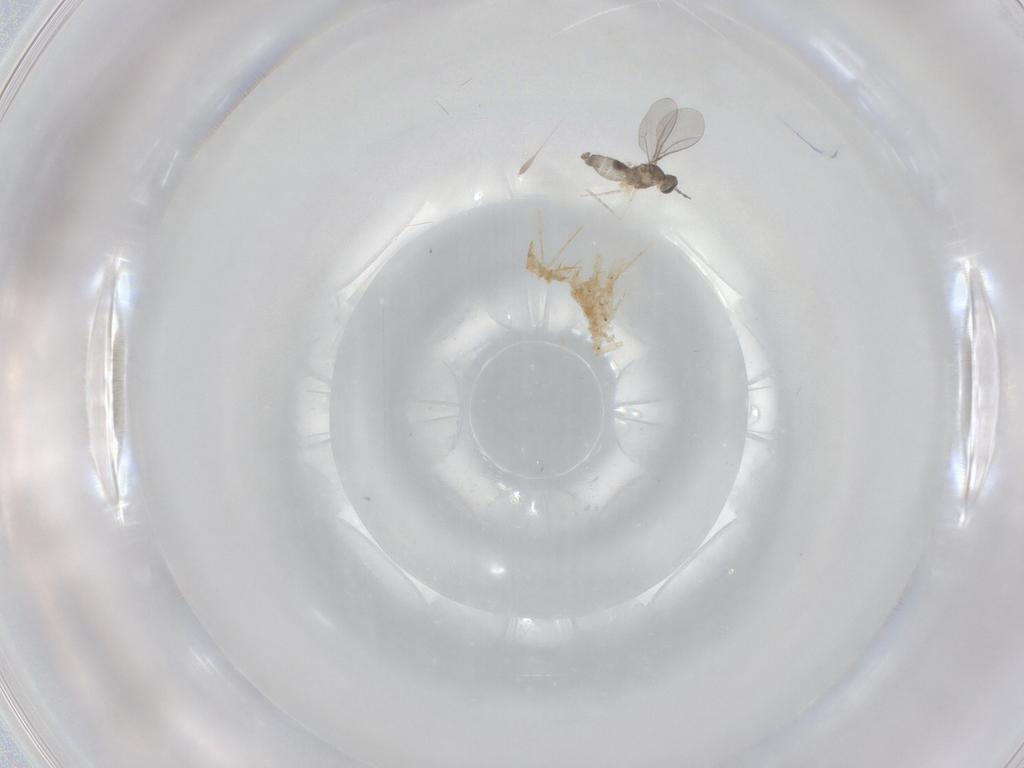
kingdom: Animalia
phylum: Arthropoda
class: Insecta
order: Diptera
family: Cecidomyiidae
